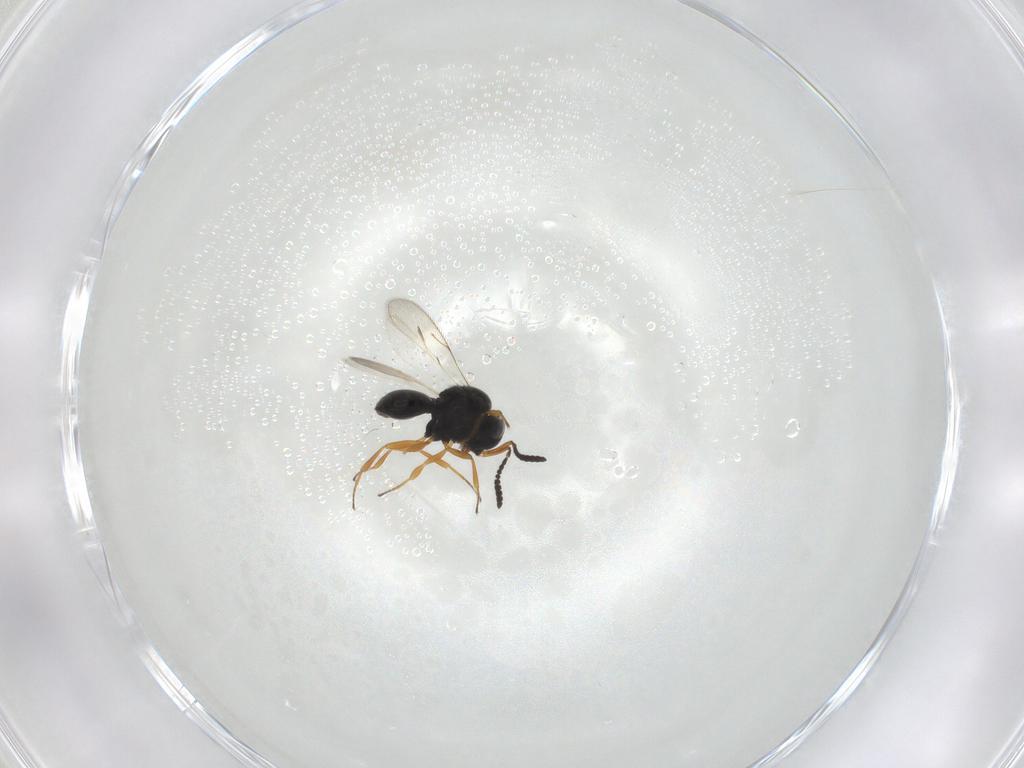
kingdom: Animalia
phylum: Arthropoda
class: Insecta
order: Hymenoptera
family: Scelionidae
